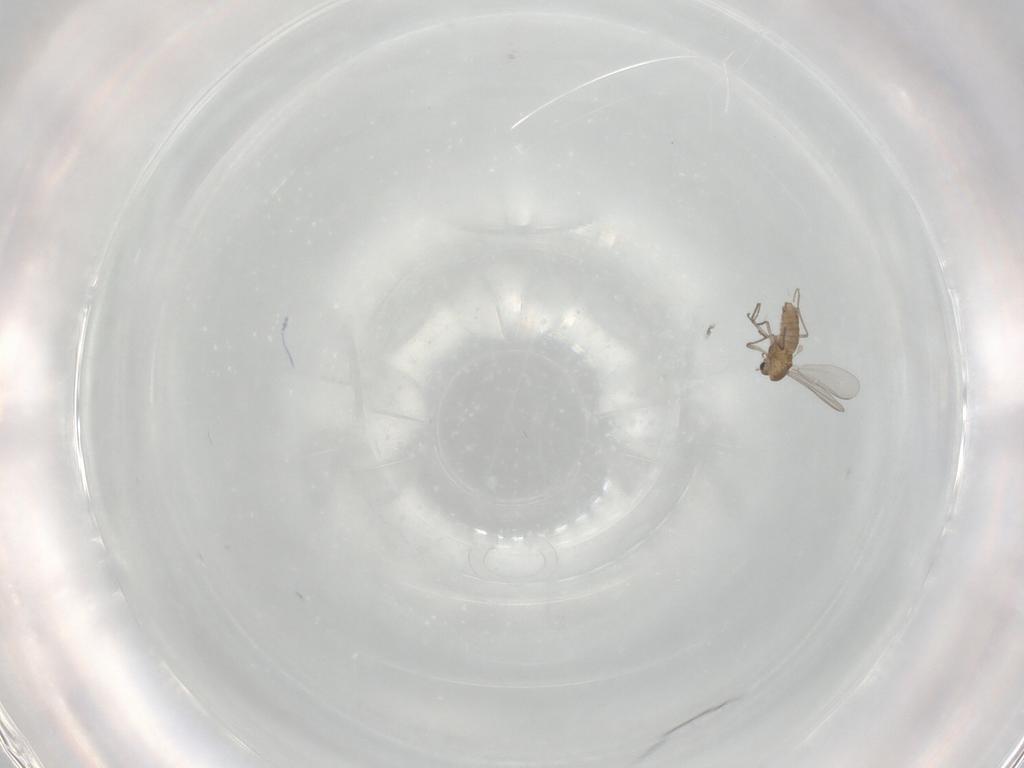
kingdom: Animalia
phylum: Arthropoda
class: Insecta
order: Diptera
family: Chironomidae
